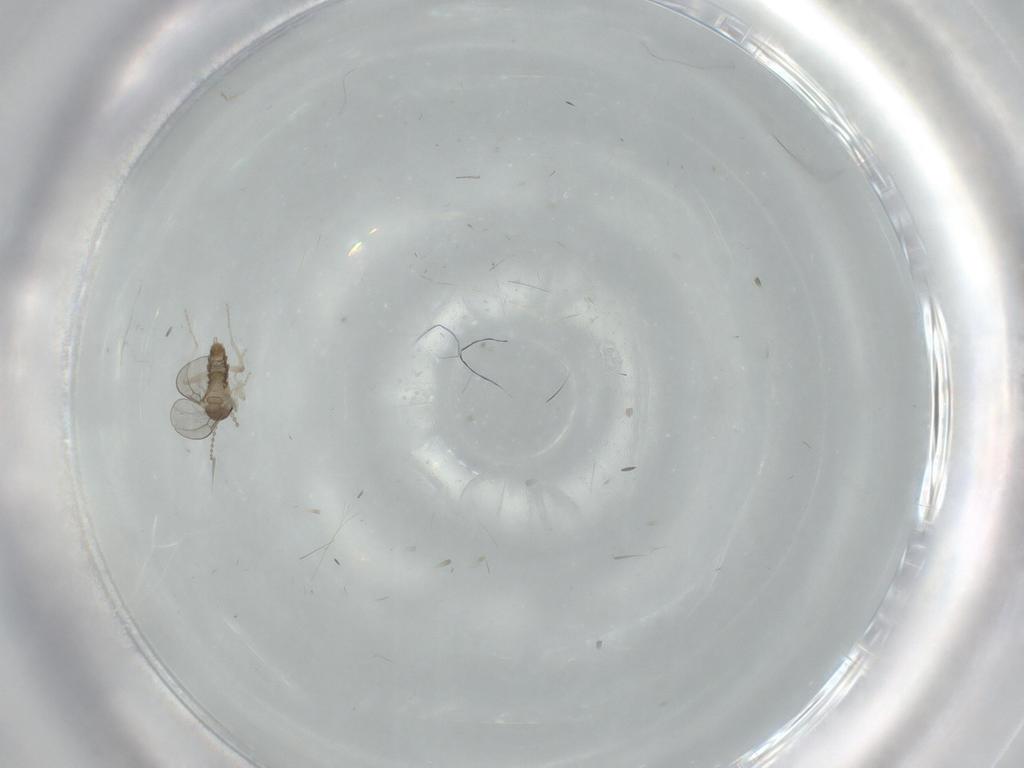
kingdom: Animalia
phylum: Arthropoda
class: Insecta
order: Diptera
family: Cecidomyiidae
